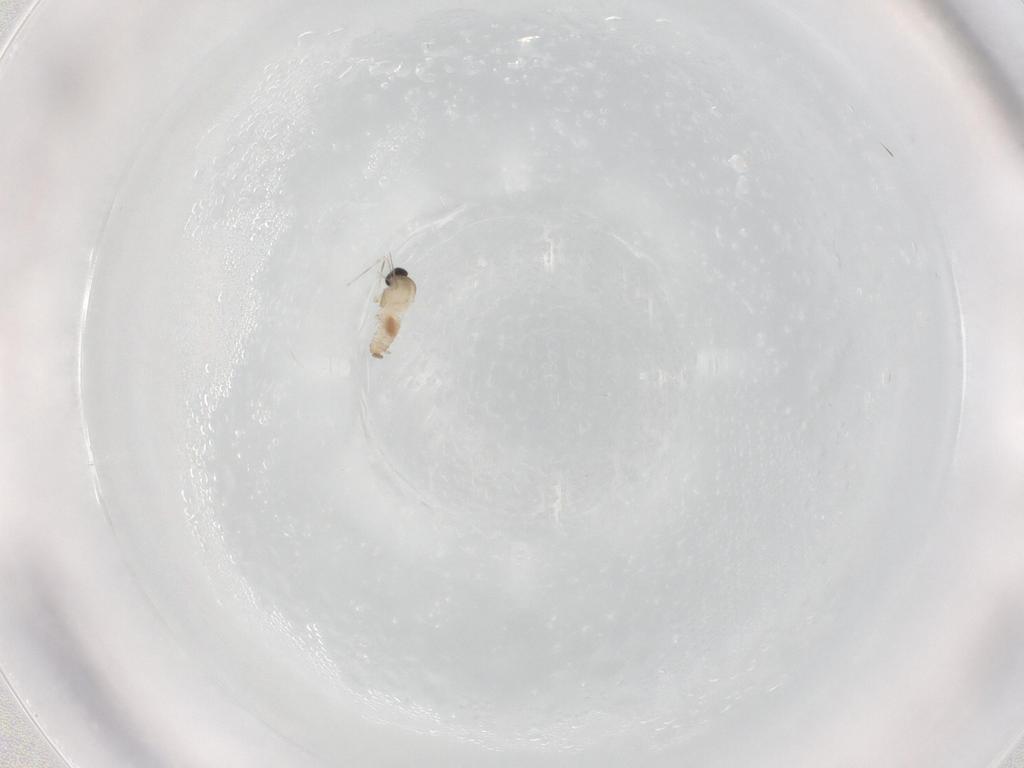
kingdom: Animalia
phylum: Arthropoda
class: Insecta
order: Diptera
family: Cecidomyiidae
